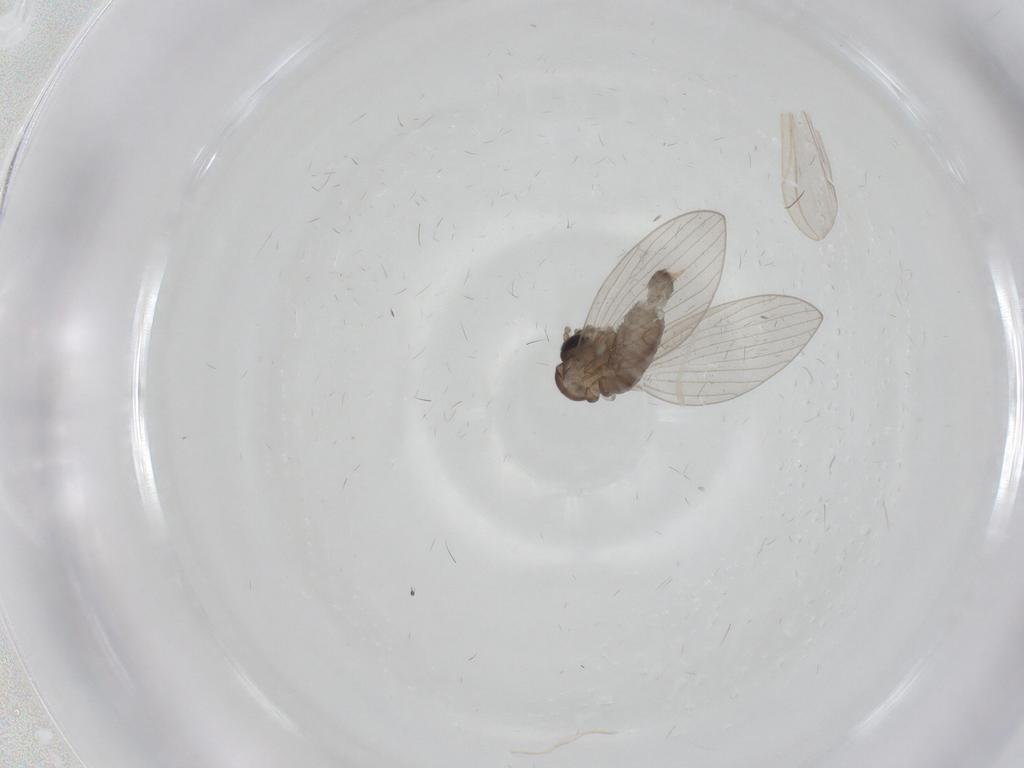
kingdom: Animalia
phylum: Arthropoda
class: Insecta
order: Diptera
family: Psychodidae
